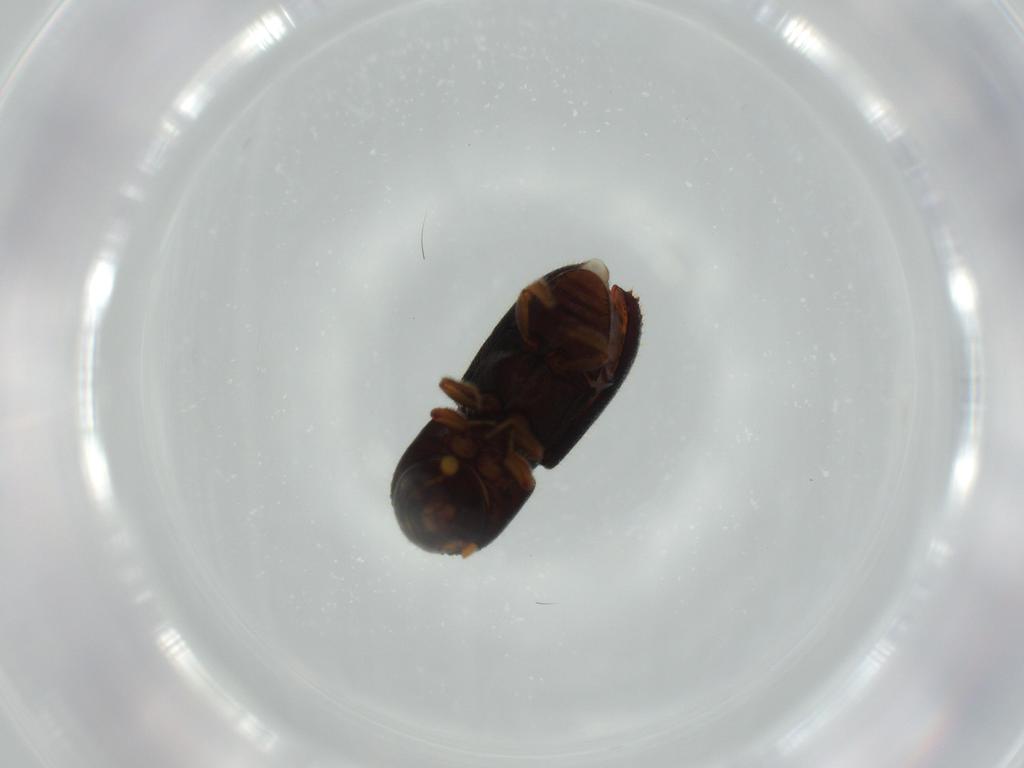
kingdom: Animalia
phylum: Arthropoda
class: Insecta
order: Coleoptera
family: Curculionidae
